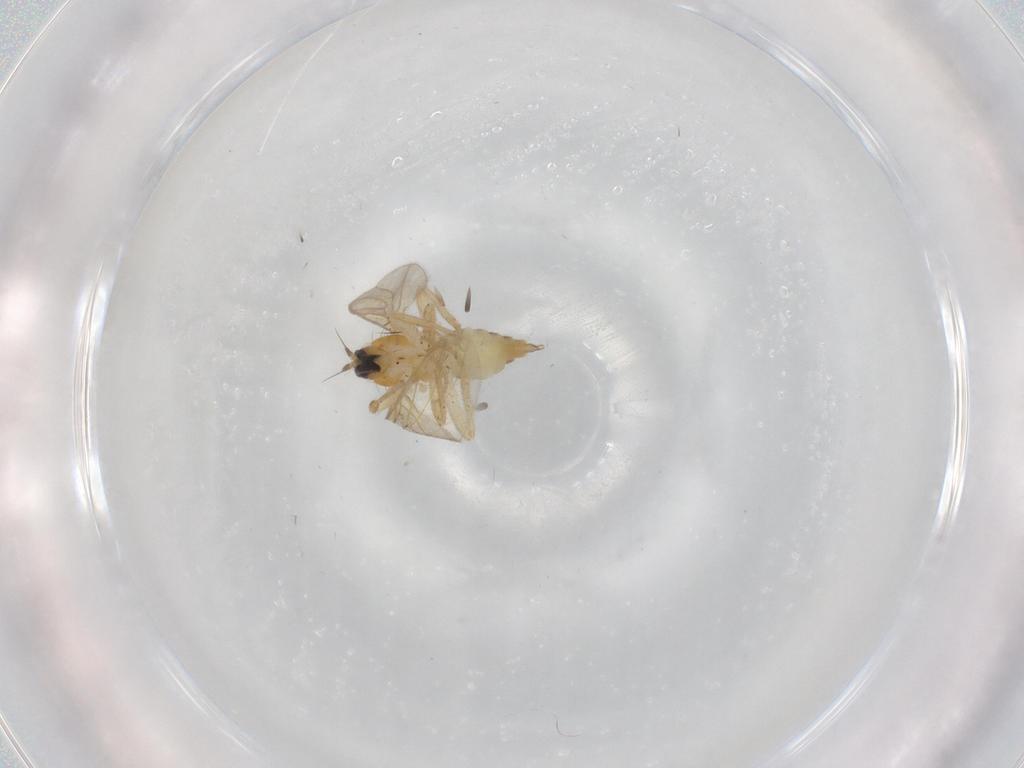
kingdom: Animalia
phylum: Arthropoda
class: Insecta
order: Diptera
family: Hybotidae
